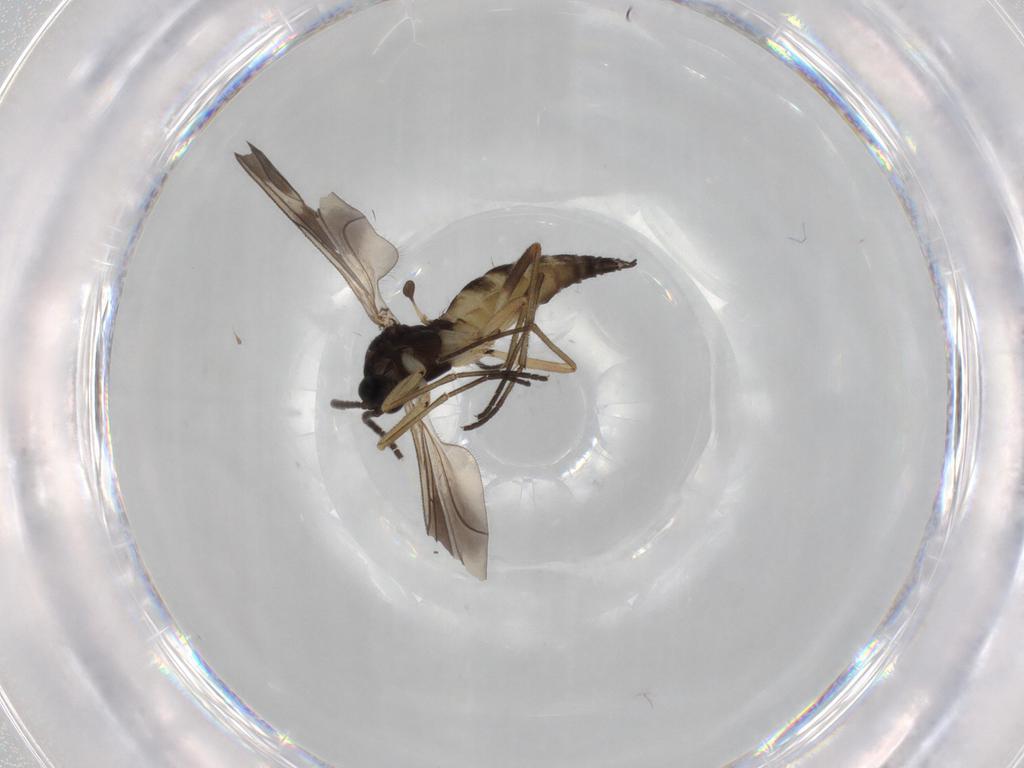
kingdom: Animalia
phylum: Arthropoda
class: Insecta
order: Diptera
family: Sciaridae
